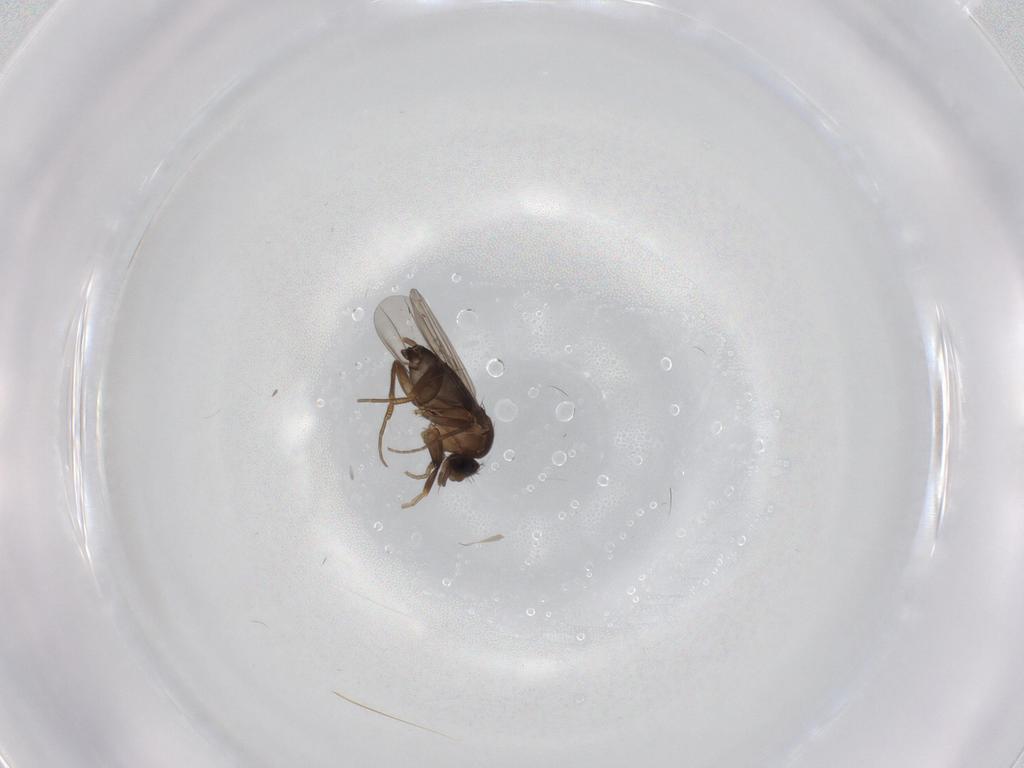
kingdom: Animalia
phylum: Arthropoda
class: Insecta
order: Diptera
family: Phoridae
